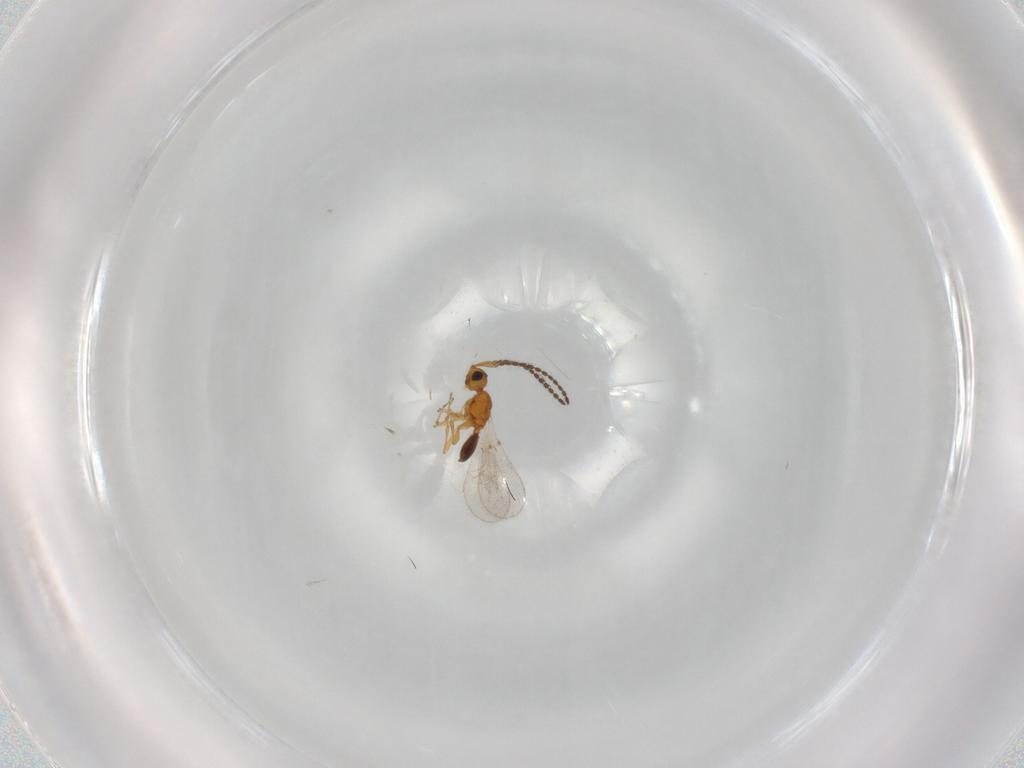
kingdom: Animalia
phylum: Arthropoda
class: Insecta
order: Hymenoptera
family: Diapriidae
